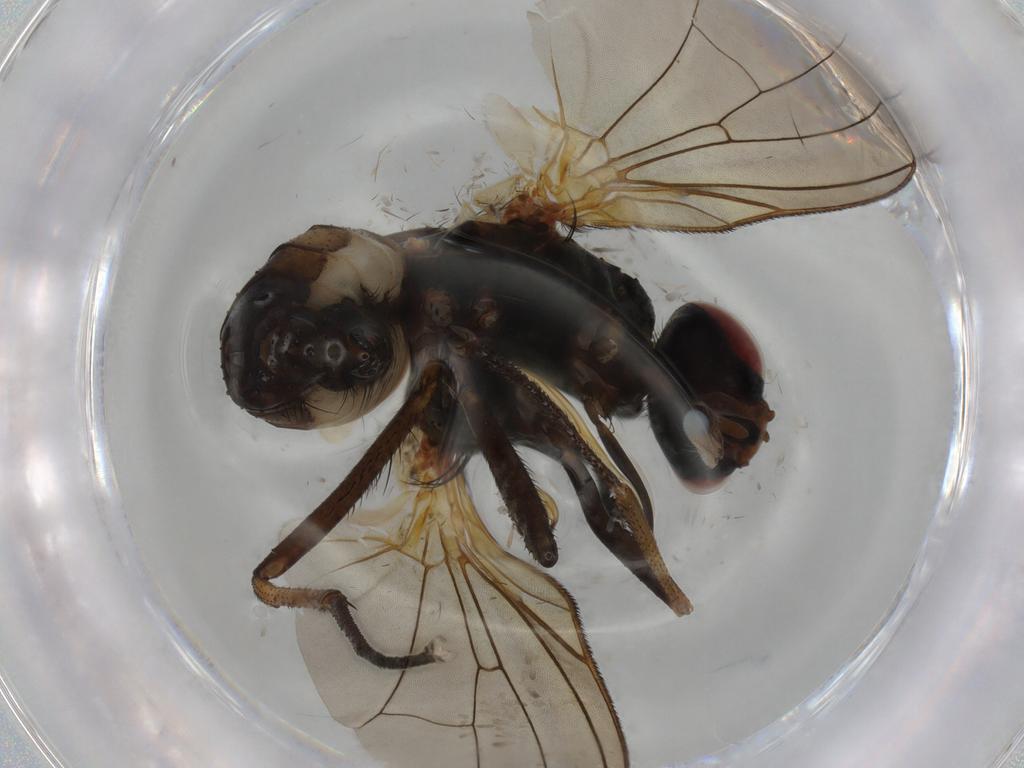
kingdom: Animalia
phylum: Arthropoda
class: Insecta
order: Diptera
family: Anthomyiidae
